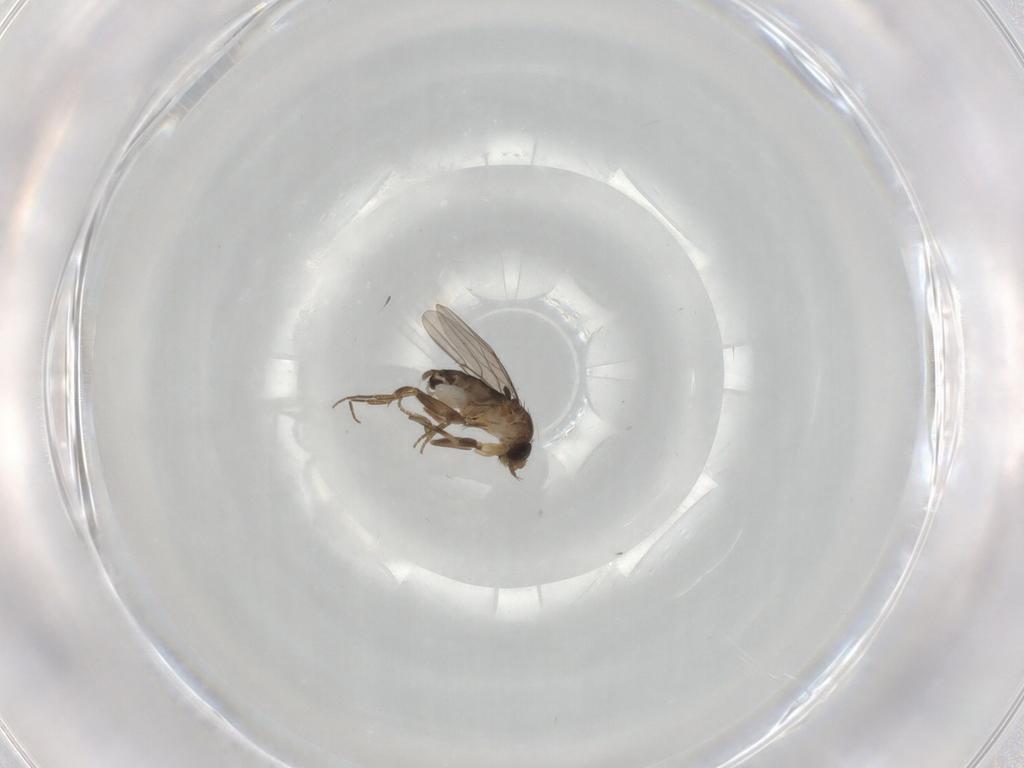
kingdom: Animalia
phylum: Arthropoda
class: Insecta
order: Diptera
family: Phoridae
